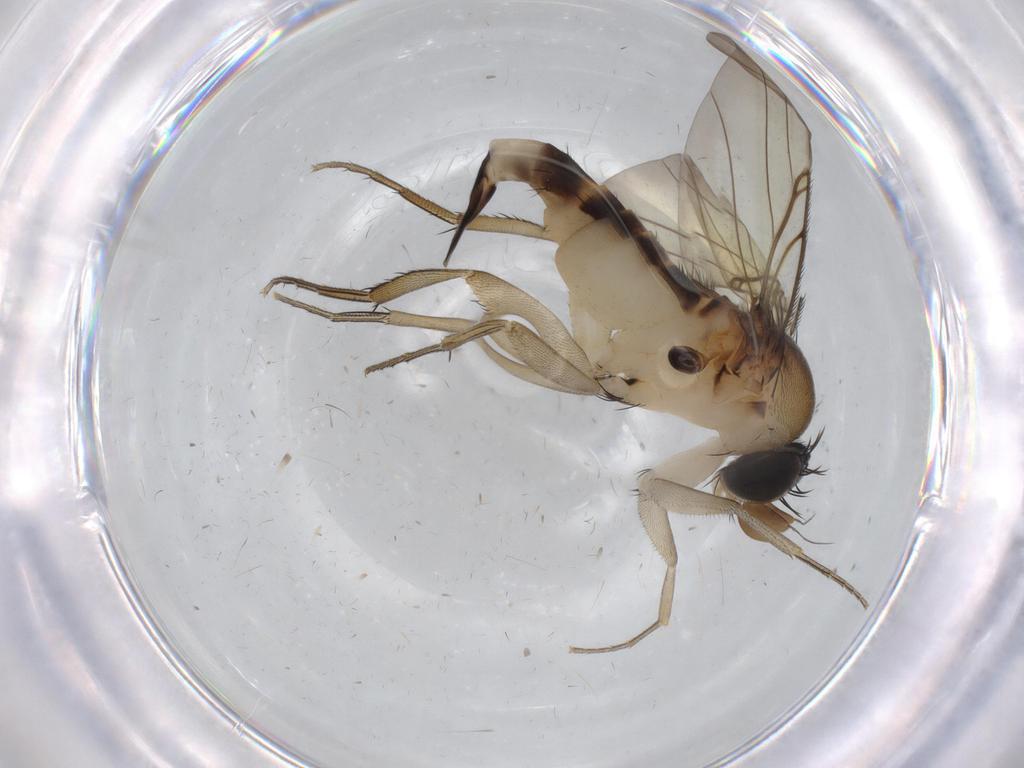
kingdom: Animalia
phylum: Arthropoda
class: Insecta
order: Diptera
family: Phoridae
